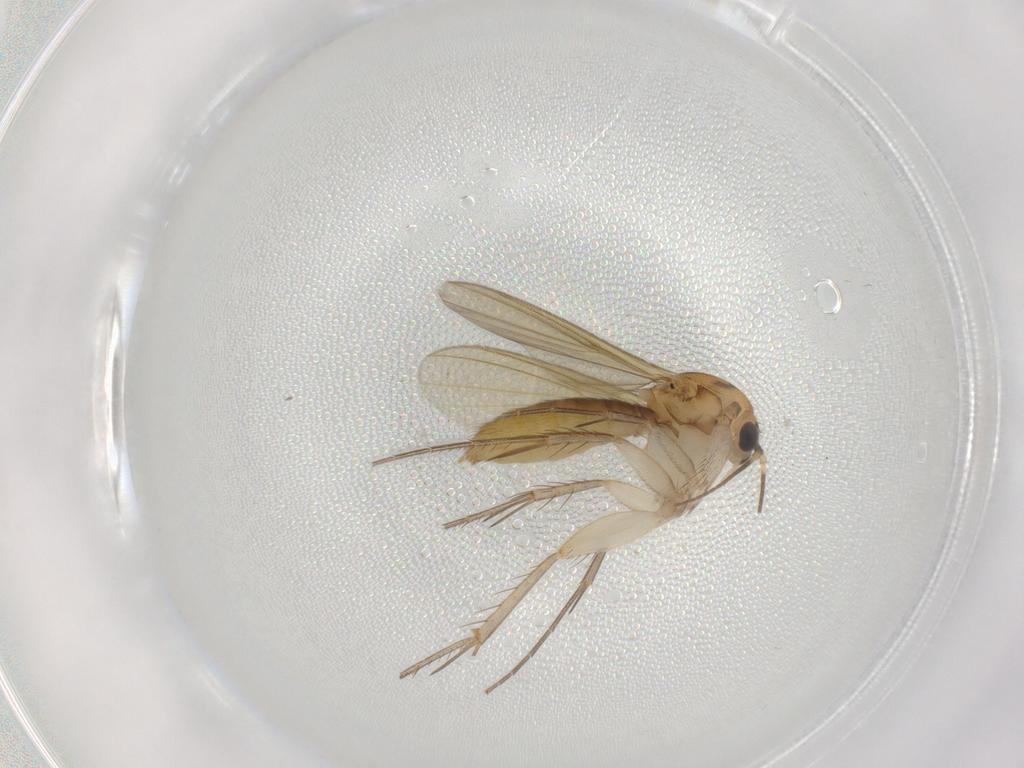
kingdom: Animalia
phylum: Arthropoda
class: Insecta
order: Diptera
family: Mycetophilidae
